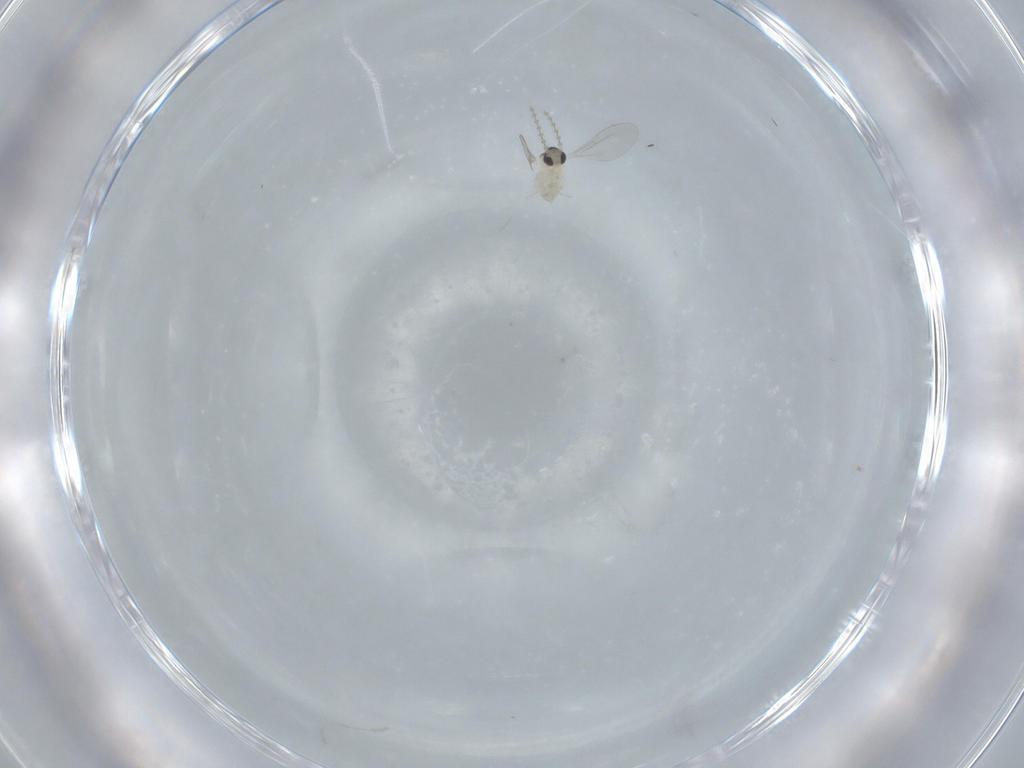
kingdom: Animalia
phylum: Arthropoda
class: Insecta
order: Diptera
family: Cecidomyiidae
